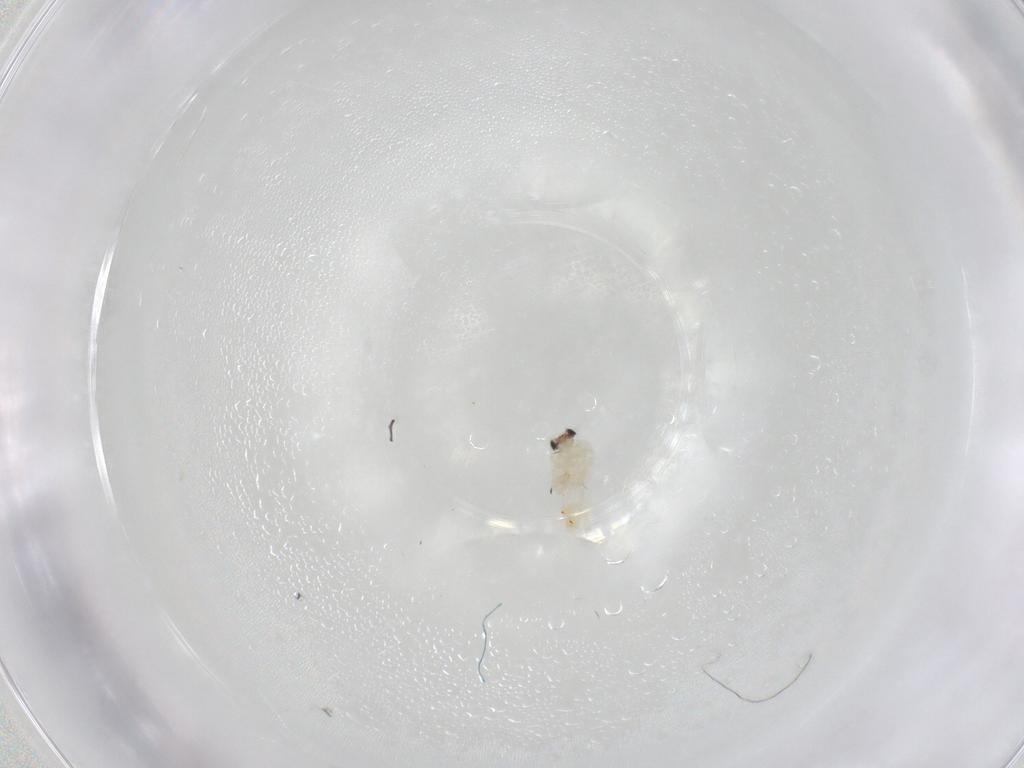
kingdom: Animalia
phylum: Arthropoda
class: Insecta
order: Lepidoptera
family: Nepticulidae
